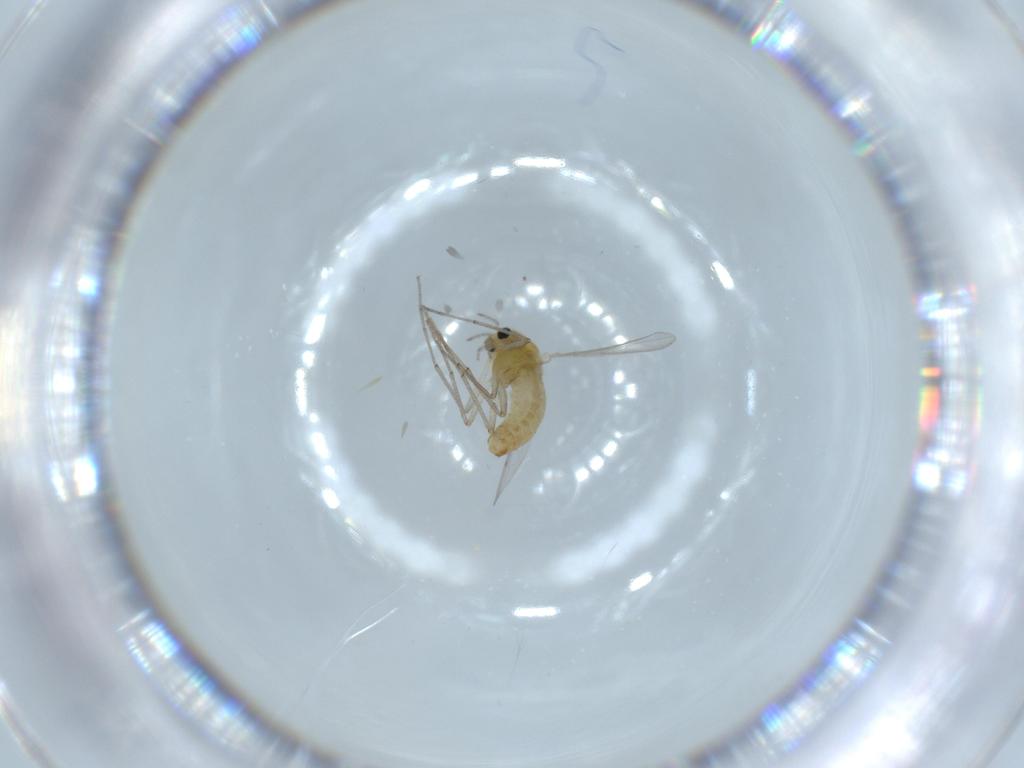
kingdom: Animalia
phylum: Arthropoda
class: Insecta
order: Diptera
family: Chironomidae
